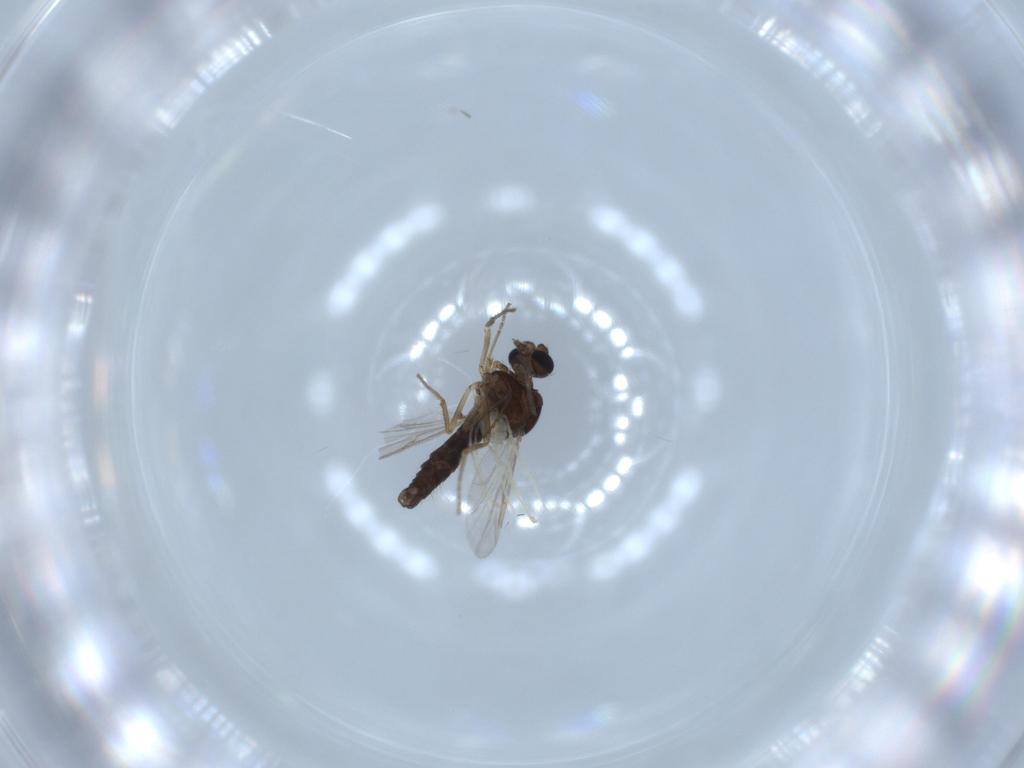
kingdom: Animalia
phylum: Arthropoda
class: Insecta
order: Diptera
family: Ceratopogonidae
